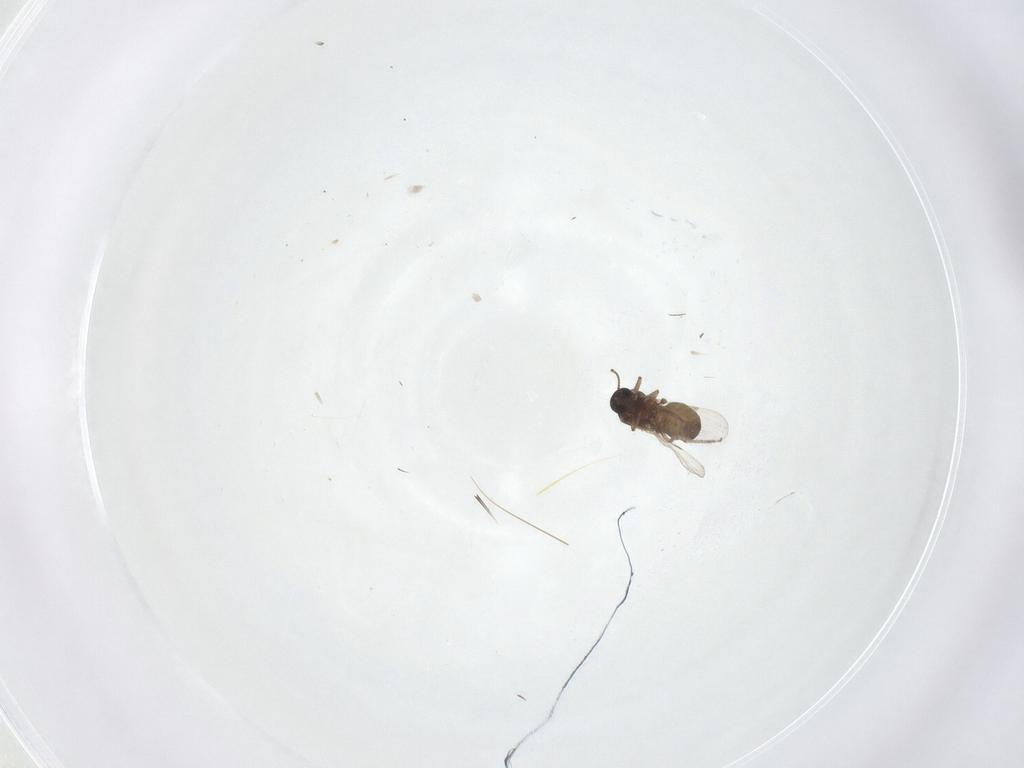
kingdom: Animalia
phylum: Arthropoda
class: Insecta
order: Diptera
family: Ceratopogonidae
